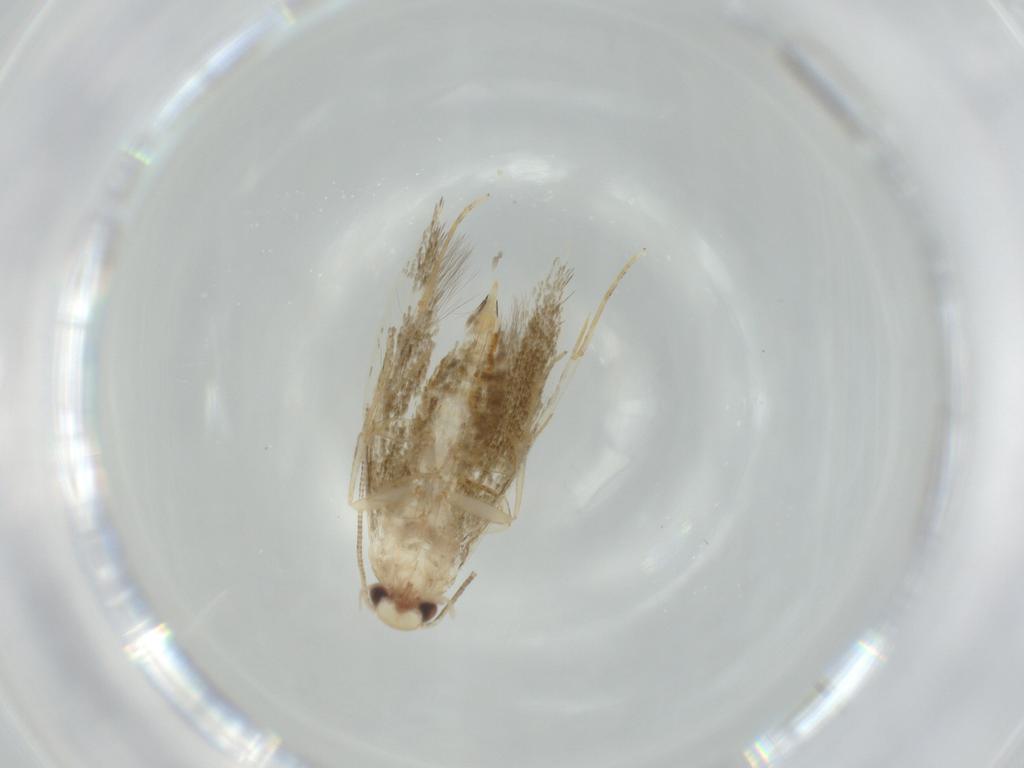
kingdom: Animalia
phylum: Arthropoda
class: Insecta
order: Lepidoptera
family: Tineidae
